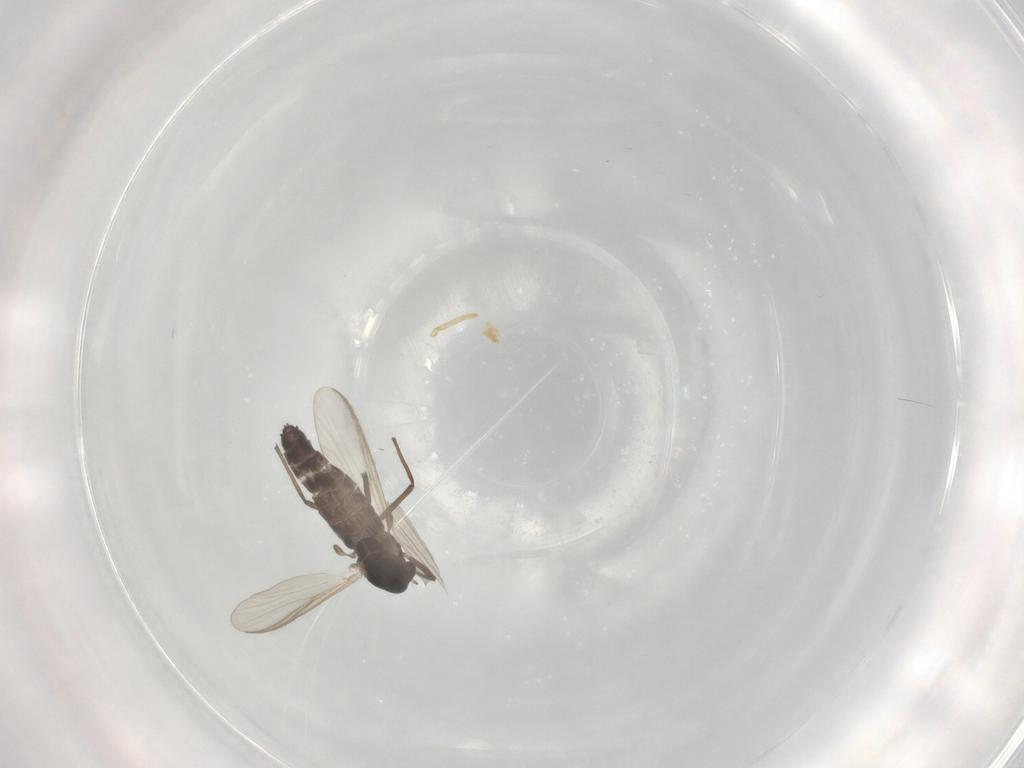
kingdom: Animalia
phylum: Arthropoda
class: Insecta
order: Diptera
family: Chironomidae
